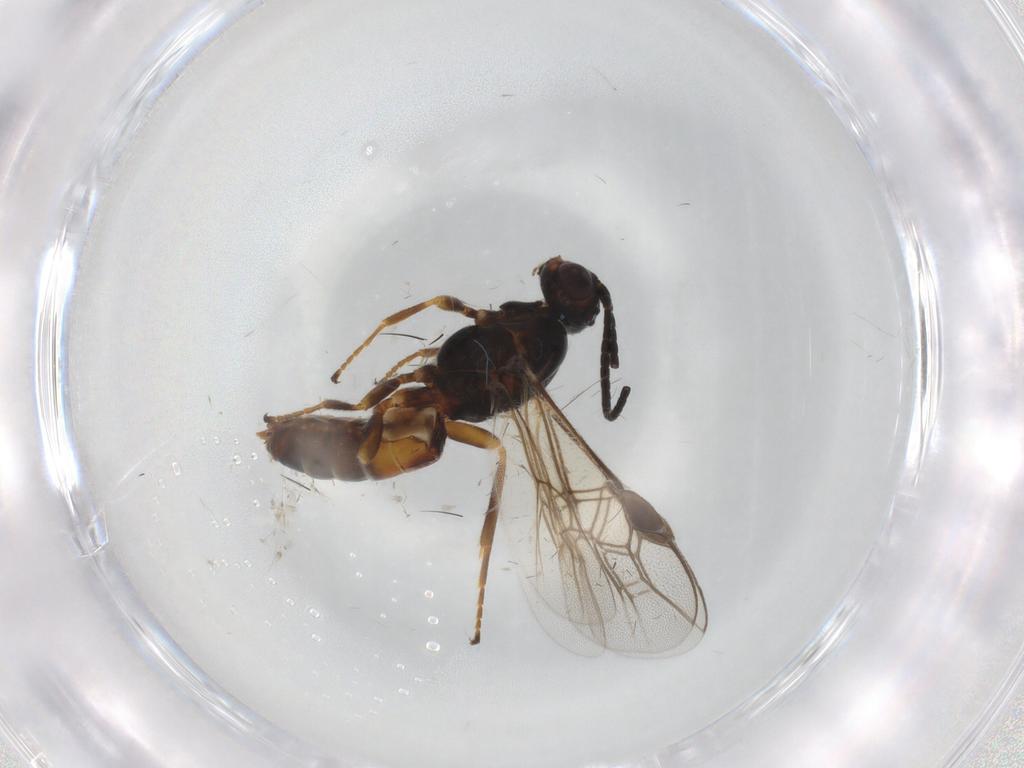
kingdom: Animalia
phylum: Arthropoda
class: Insecta
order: Hymenoptera
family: Braconidae
